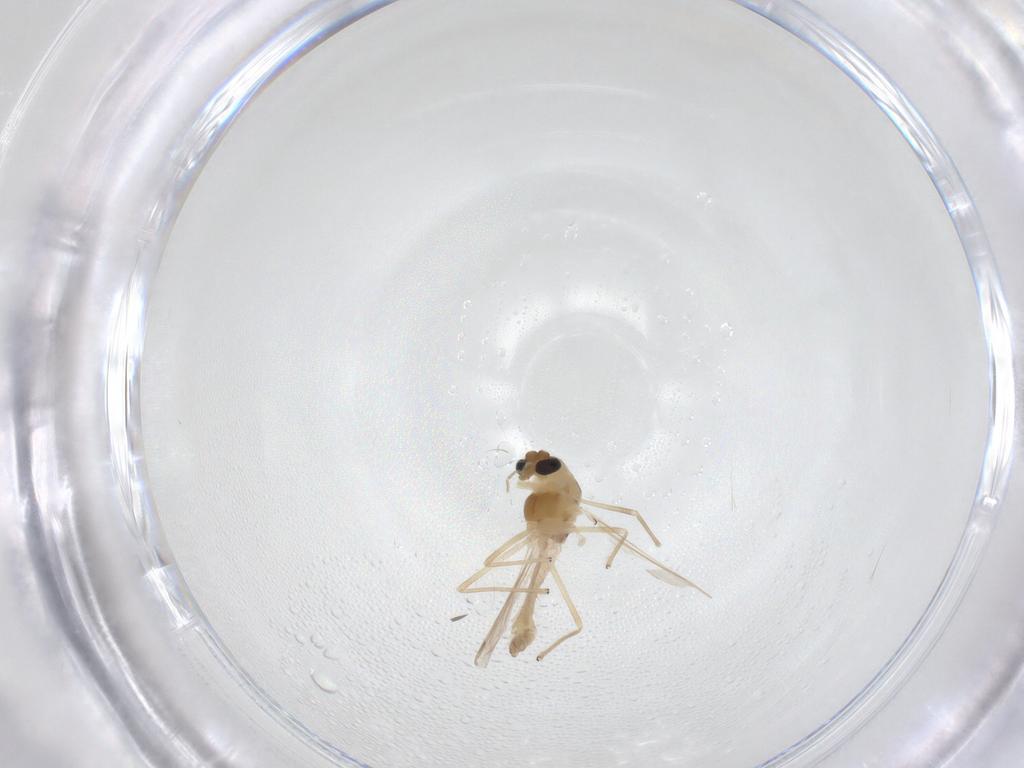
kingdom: Animalia
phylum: Arthropoda
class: Insecta
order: Diptera
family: Chironomidae
